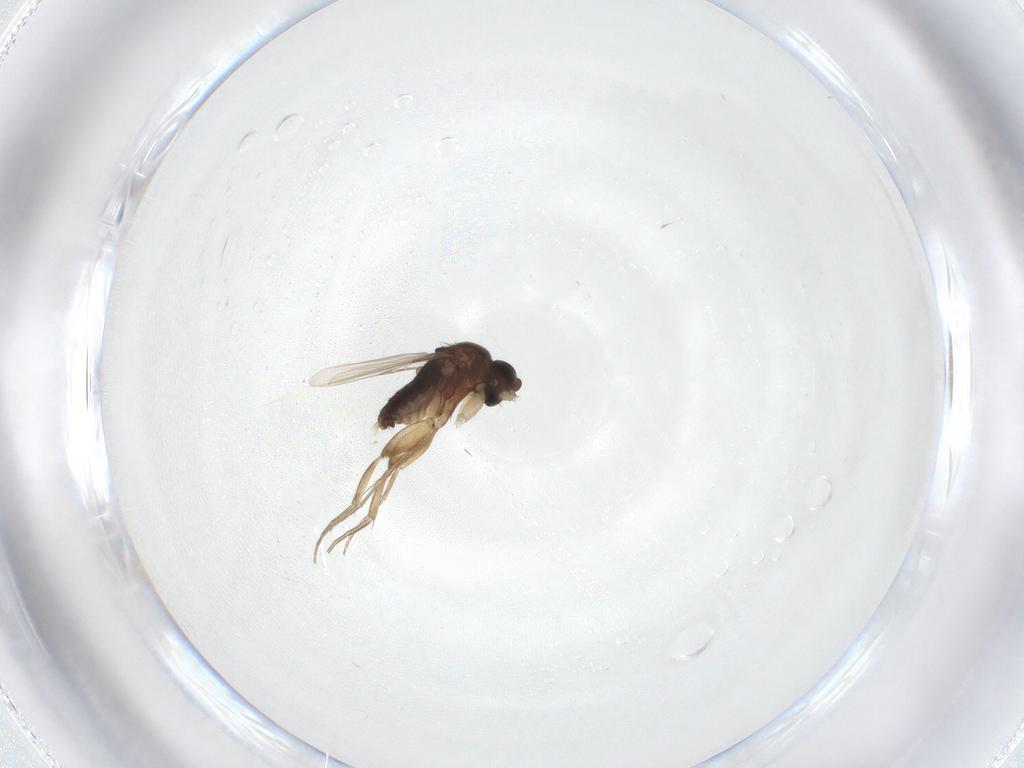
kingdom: Animalia
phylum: Arthropoda
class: Insecta
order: Diptera
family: Phoridae
